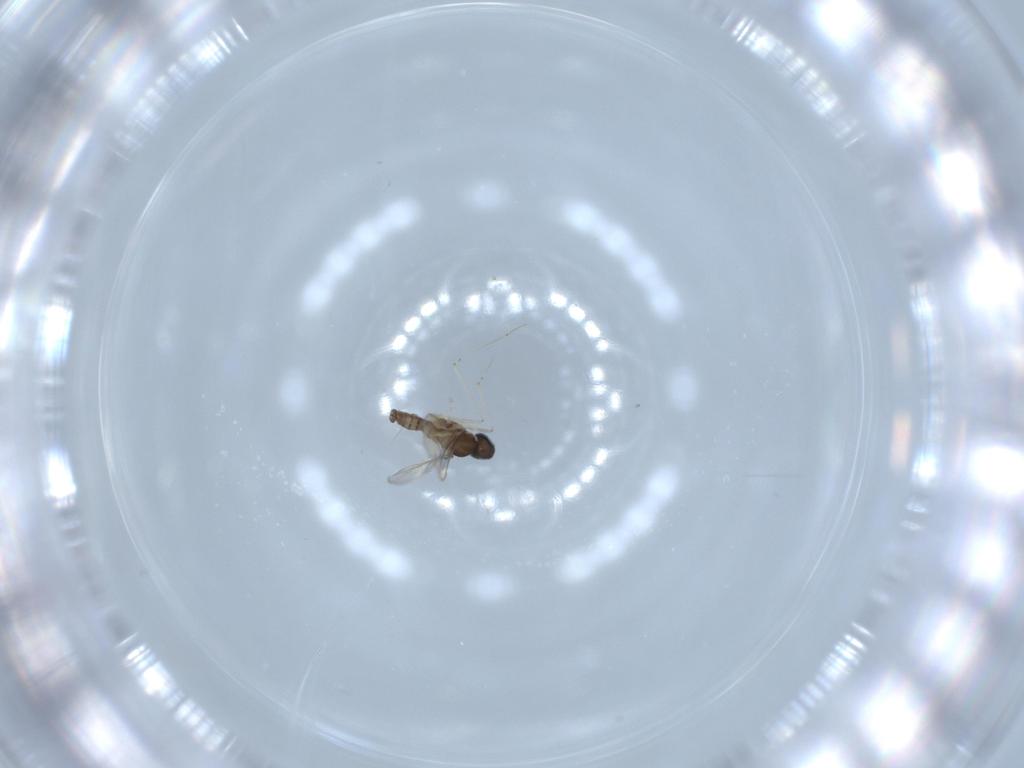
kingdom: Animalia
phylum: Arthropoda
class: Insecta
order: Diptera
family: Cecidomyiidae
